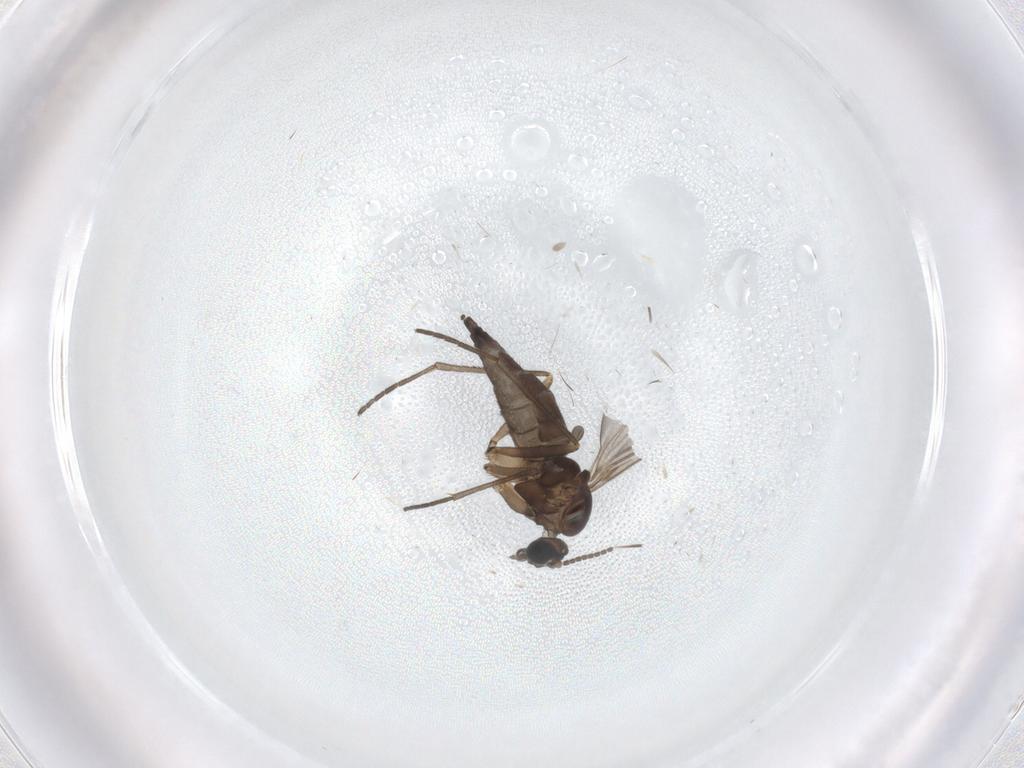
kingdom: Animalia
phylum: Arthropoda
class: Insecta
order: Diptera
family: Sciaridae
